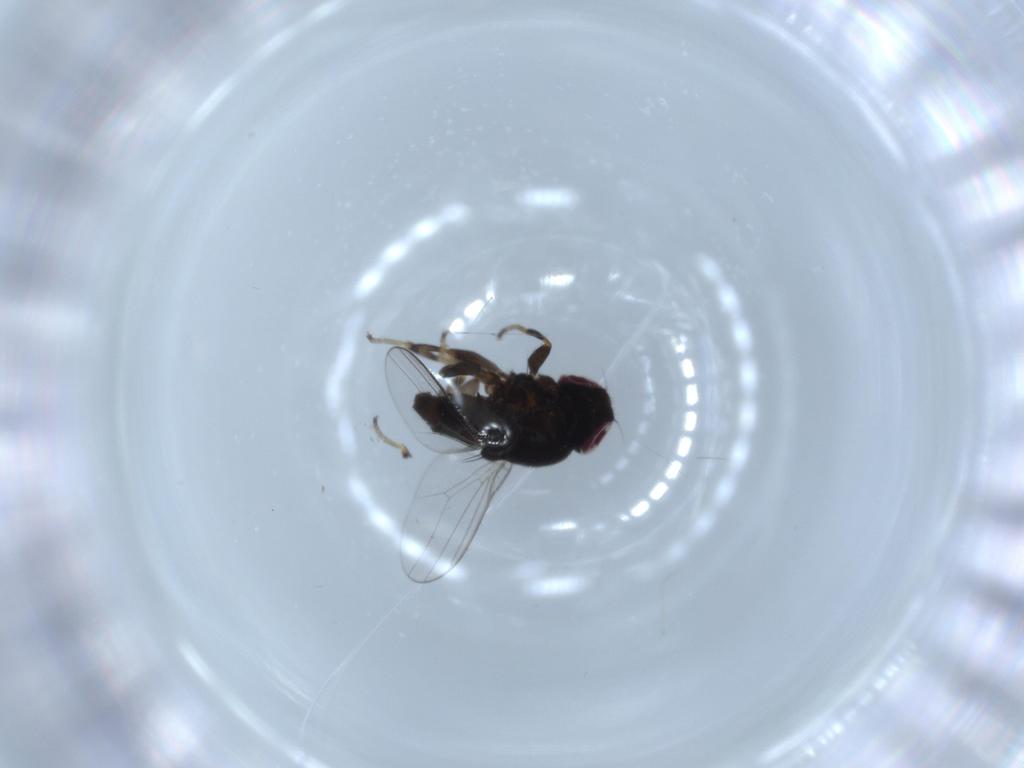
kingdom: Animalia
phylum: Arthropoda
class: Insecta
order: Diptera
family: Chloropidae
